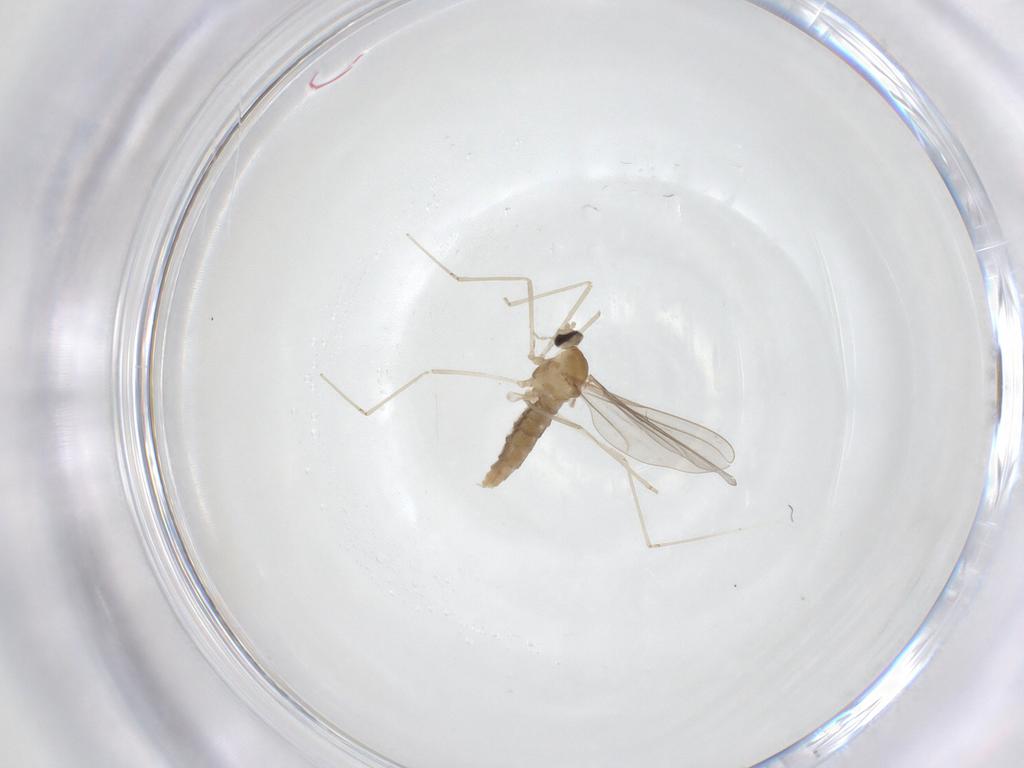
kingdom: Animalia
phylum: Arthropoda
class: Insecta
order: Diptera
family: Cecidomyiidae
